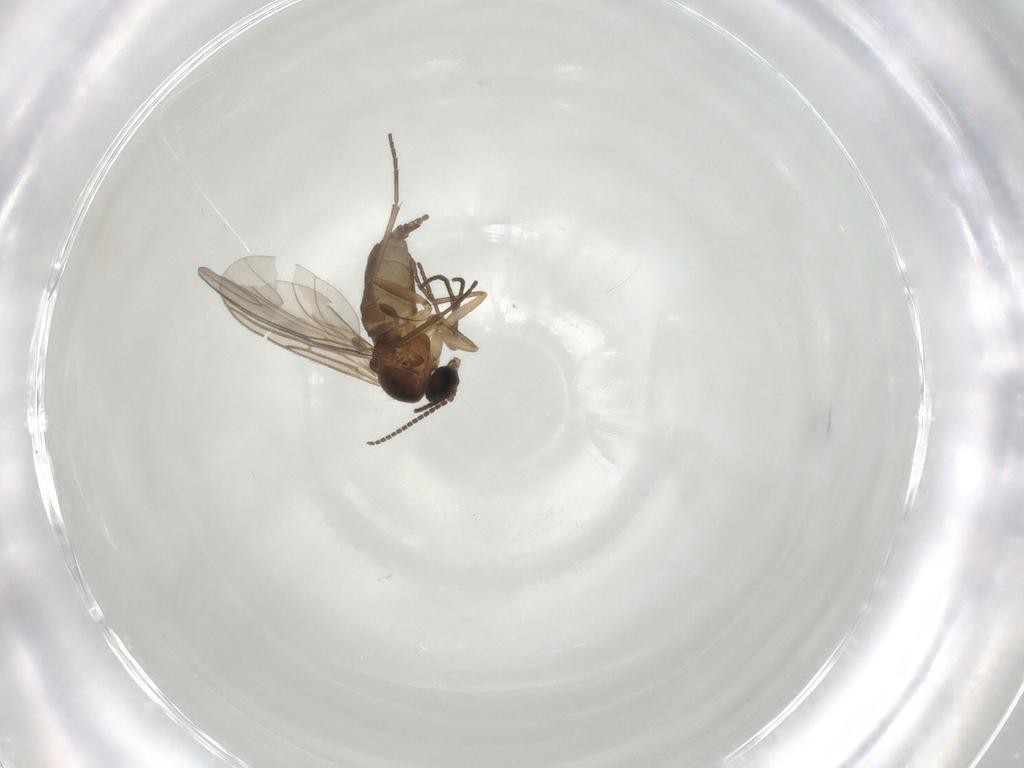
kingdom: Animalia
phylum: Arthropoda
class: Insecta
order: Diptera
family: Sciaridae
